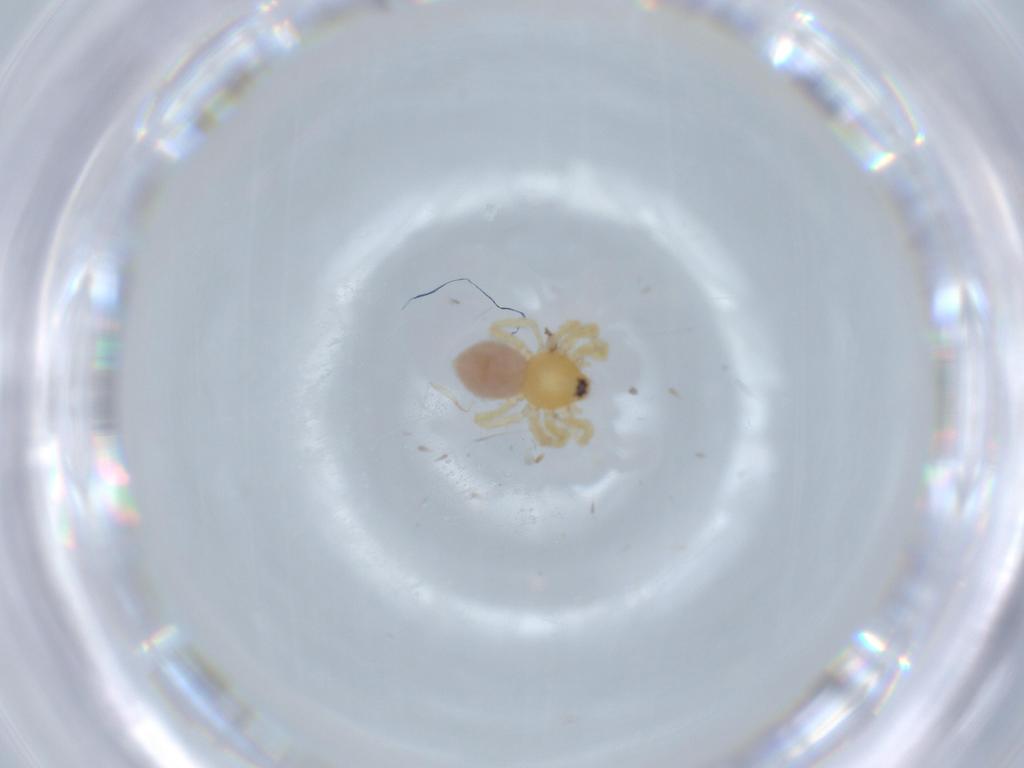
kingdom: Animalia
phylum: Arthropoda
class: Arachnida
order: Araneae
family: Oonopidae
